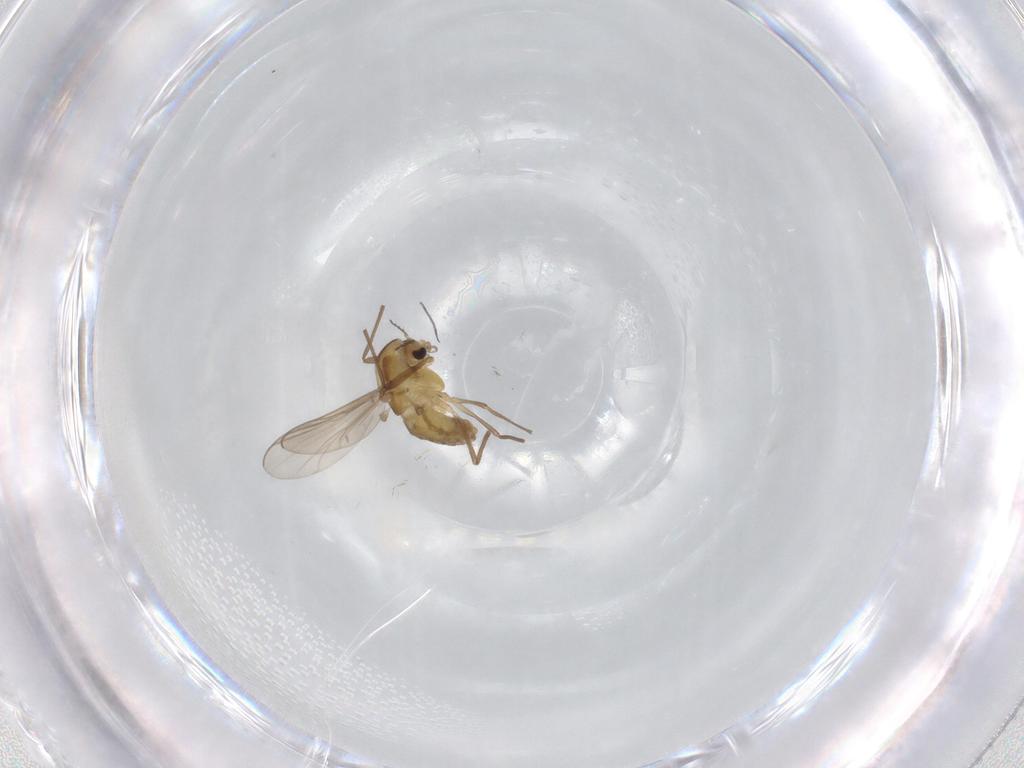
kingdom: Animalia
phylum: Arthropoda
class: Insecta
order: Diptera
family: Chironomidae
